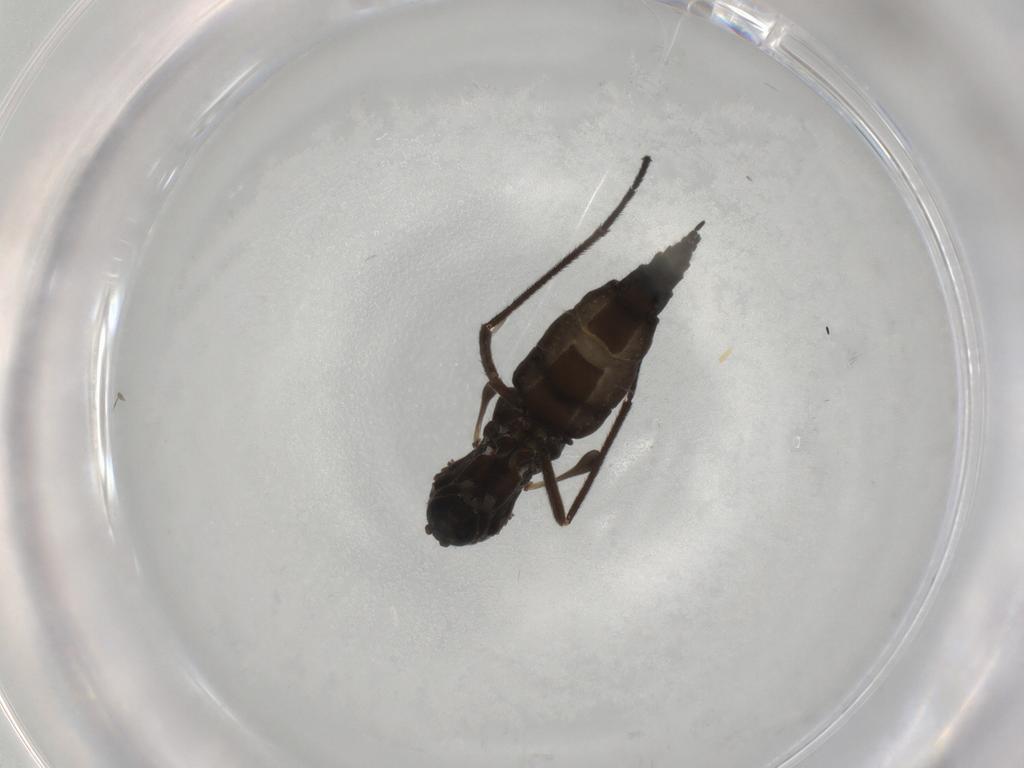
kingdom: Animalia
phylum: Arthropoda
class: Insecta
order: Diptera
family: Sciaridae
